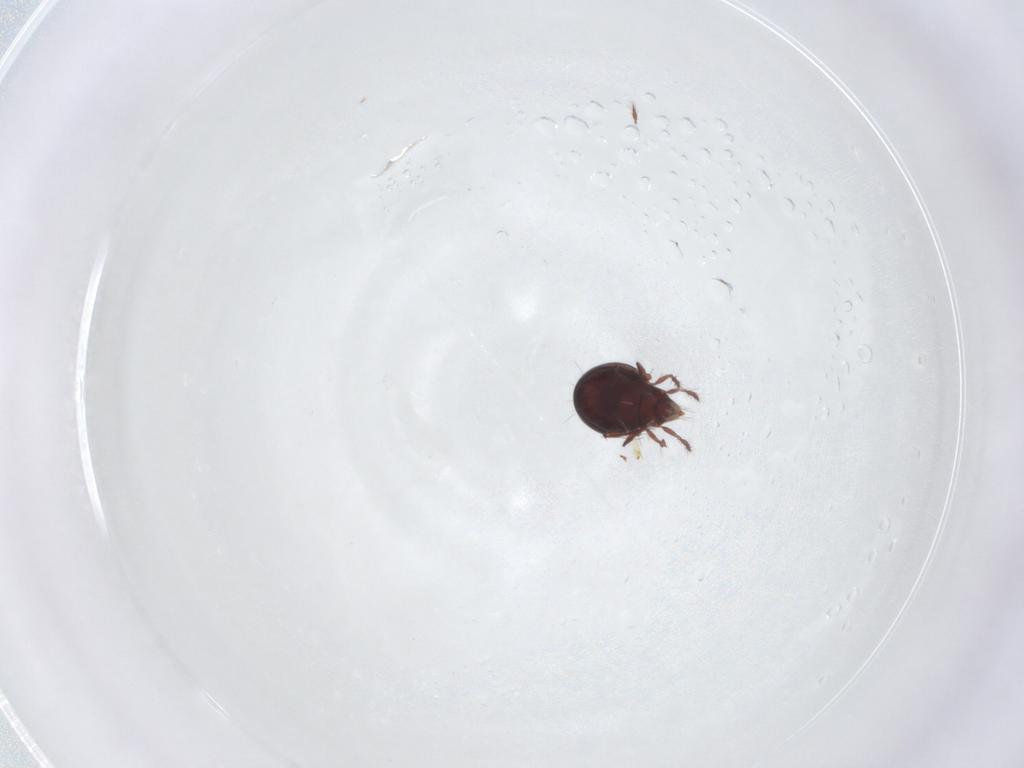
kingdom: Animalia
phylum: Arthropoda
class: Arachnida
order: Sarcoptiformes
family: Ceratoppiidae
